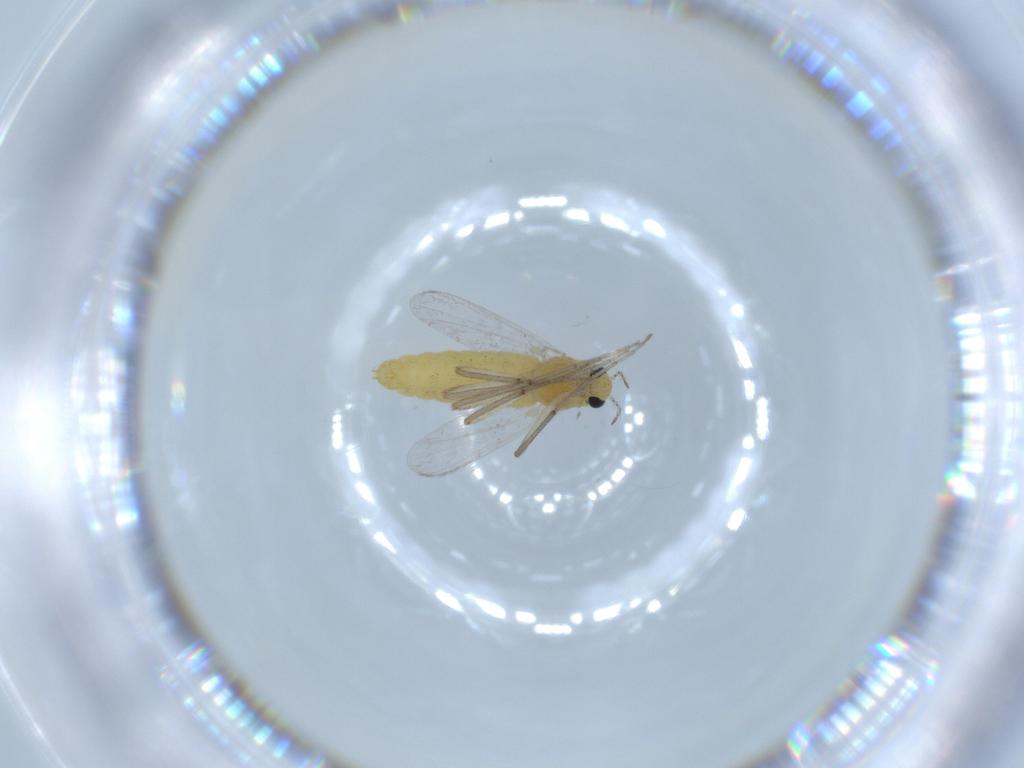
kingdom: Animalia
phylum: Arthropoda
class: Insecta
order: Diptera
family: Chironomidae
